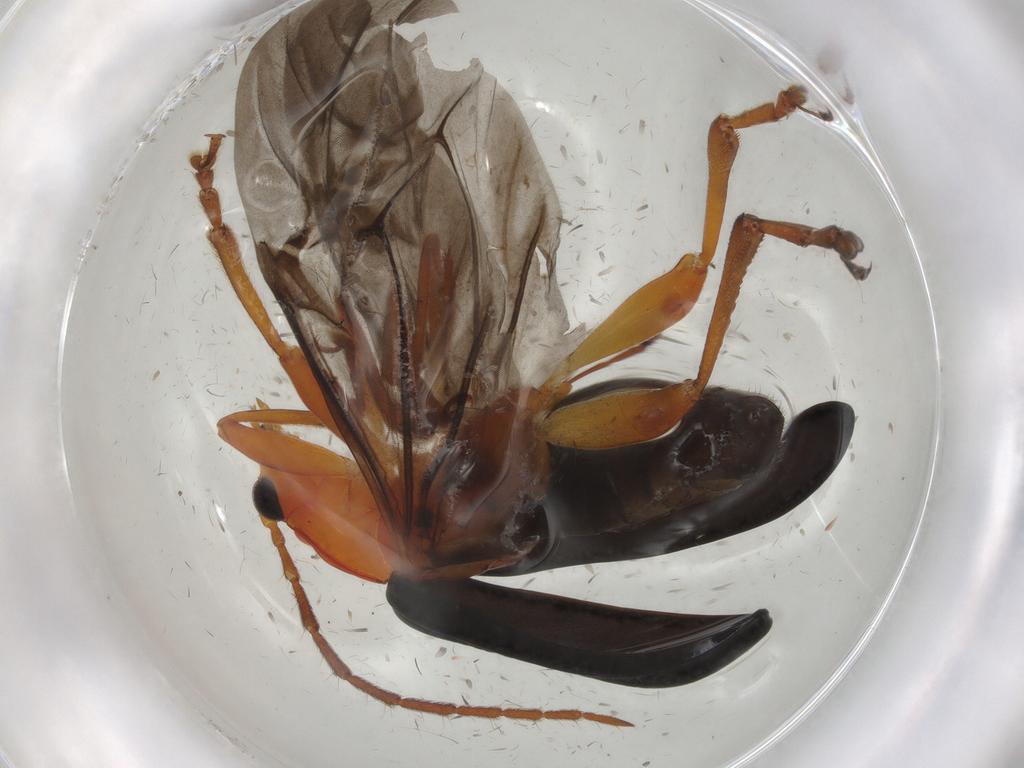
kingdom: Animalia
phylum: Arthropoda
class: Insecta
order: Coleoptera
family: Chrysomelidae
